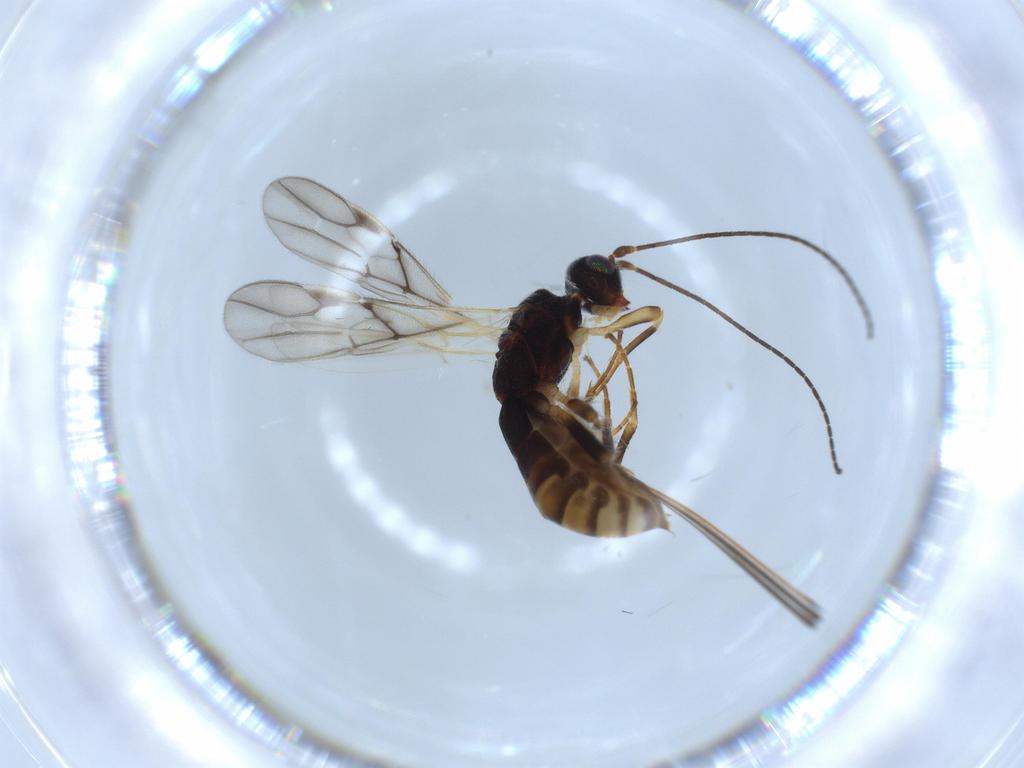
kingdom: Animalia
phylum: Arthropoda
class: Insecta
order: Hymenoptera
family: Braconidae
